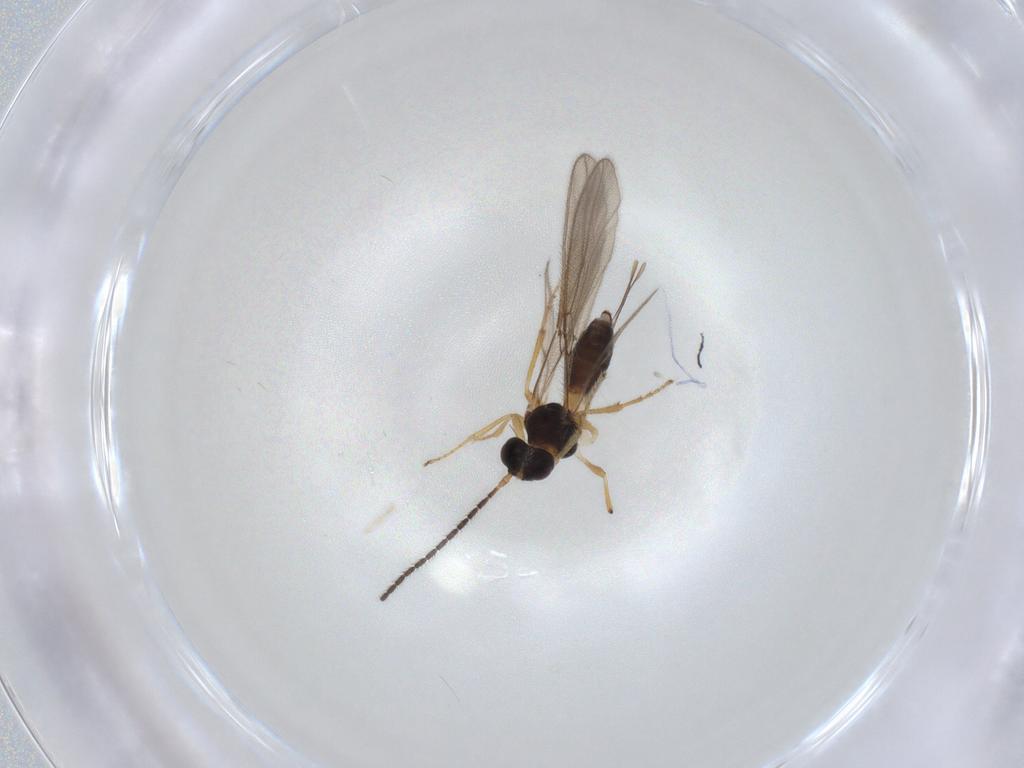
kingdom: Animalia
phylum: Arthropoda
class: Insecta
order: Hymenoptera
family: Braconidae
